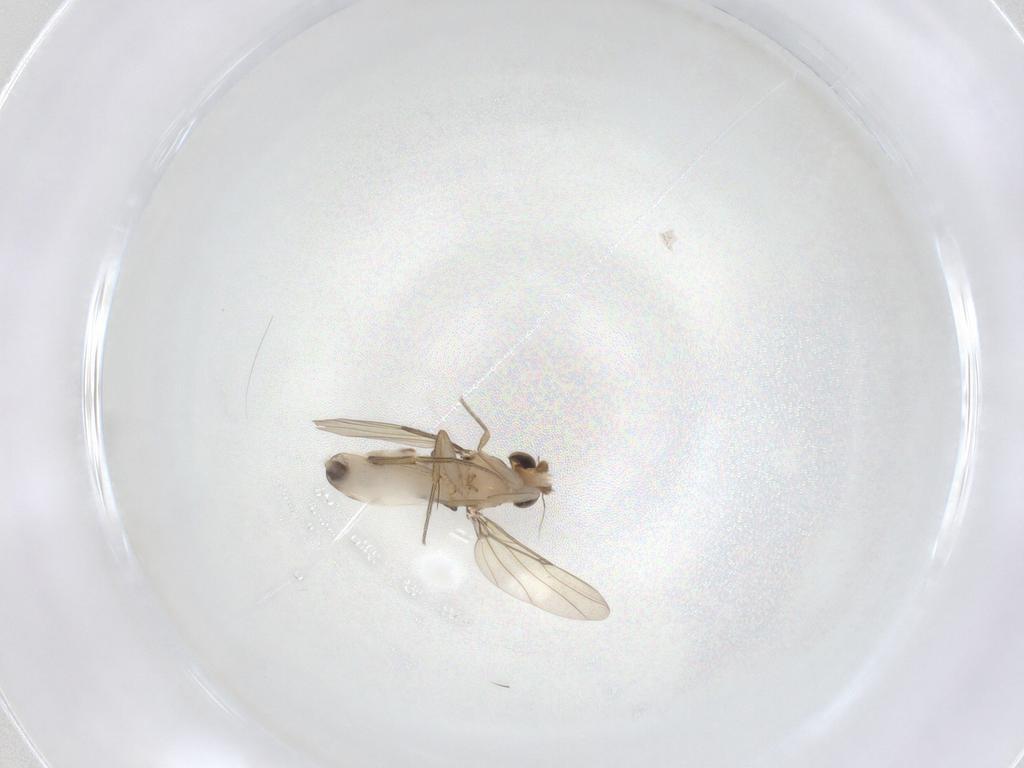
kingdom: Animalia
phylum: Arthropoda
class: Insecta
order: Diptera
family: Phoridae
